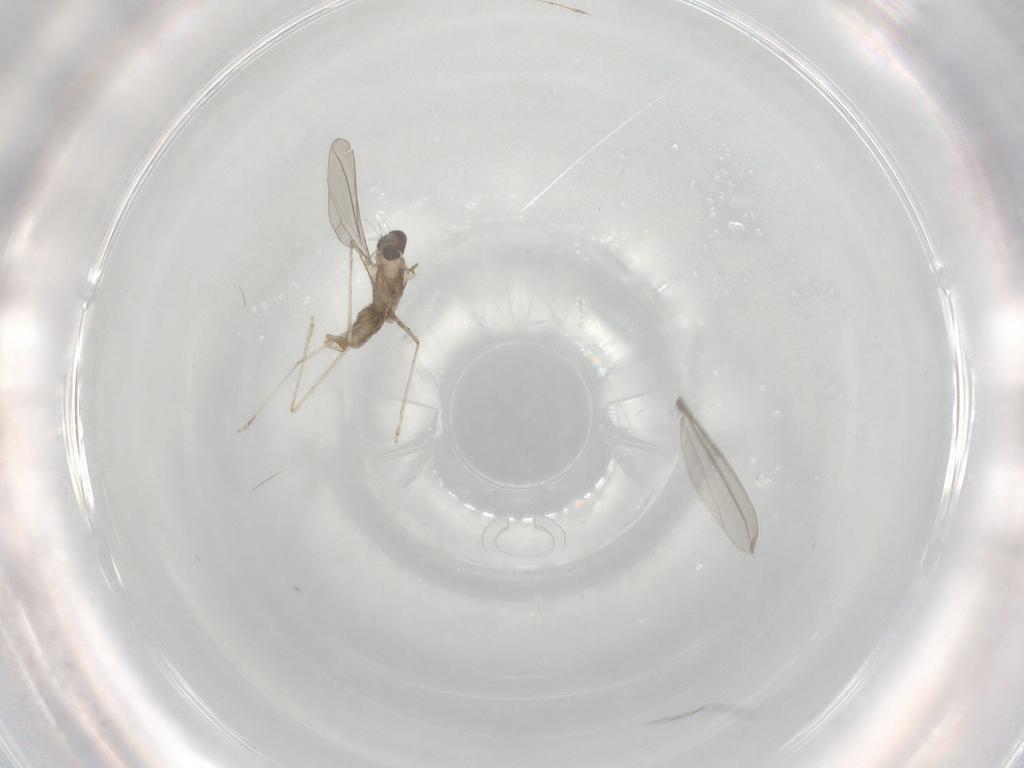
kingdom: Animalia
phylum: Arthropoda
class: Insecta
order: Diptera
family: Cecidomyiidae
